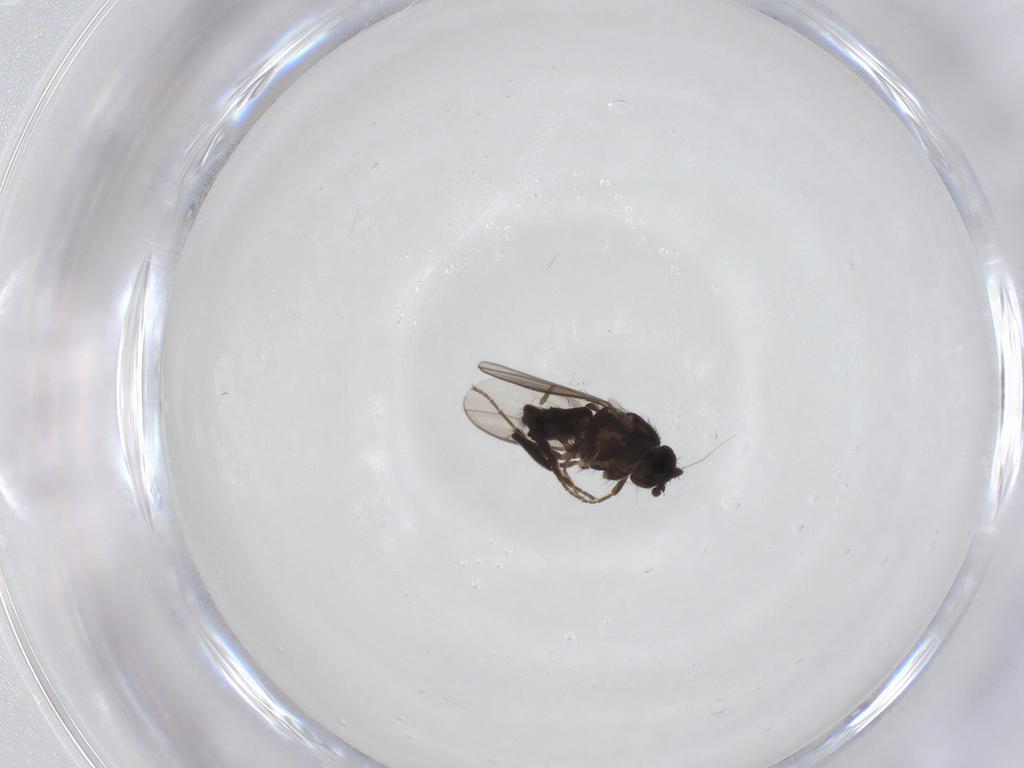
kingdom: Animalia
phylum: Arthropoda
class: Insecta
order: Diptera
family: Sphaeroceridae
